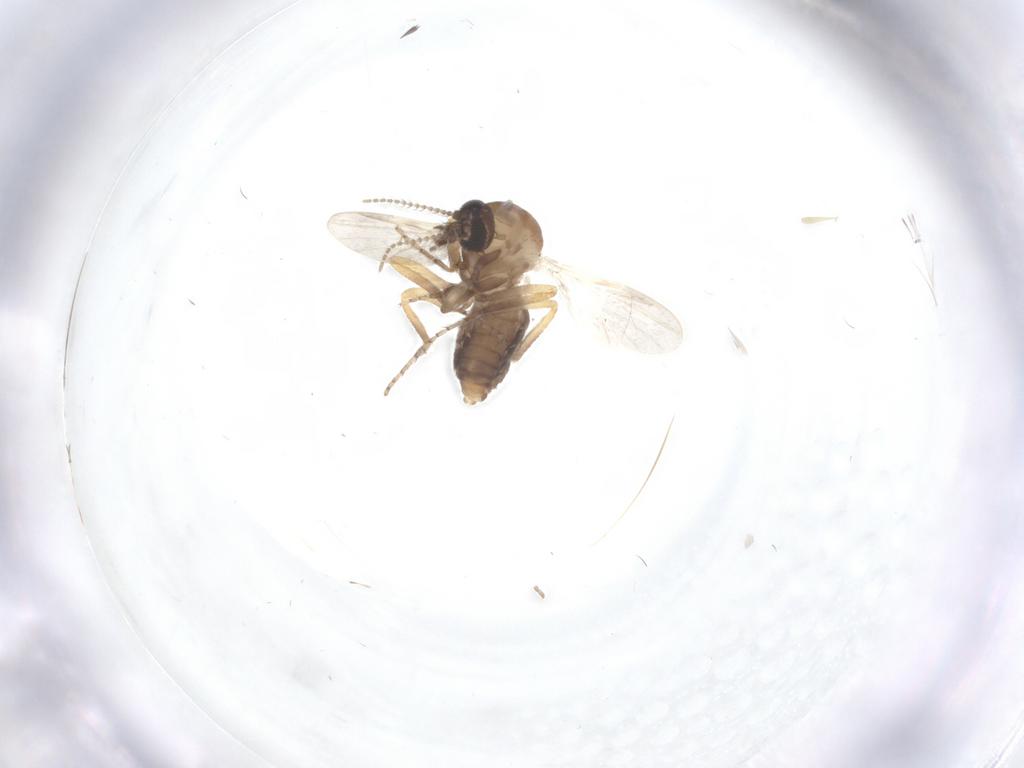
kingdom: Animalia
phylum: Arthropoda
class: Insecta
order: Diptera
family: Ceratopogonidae
